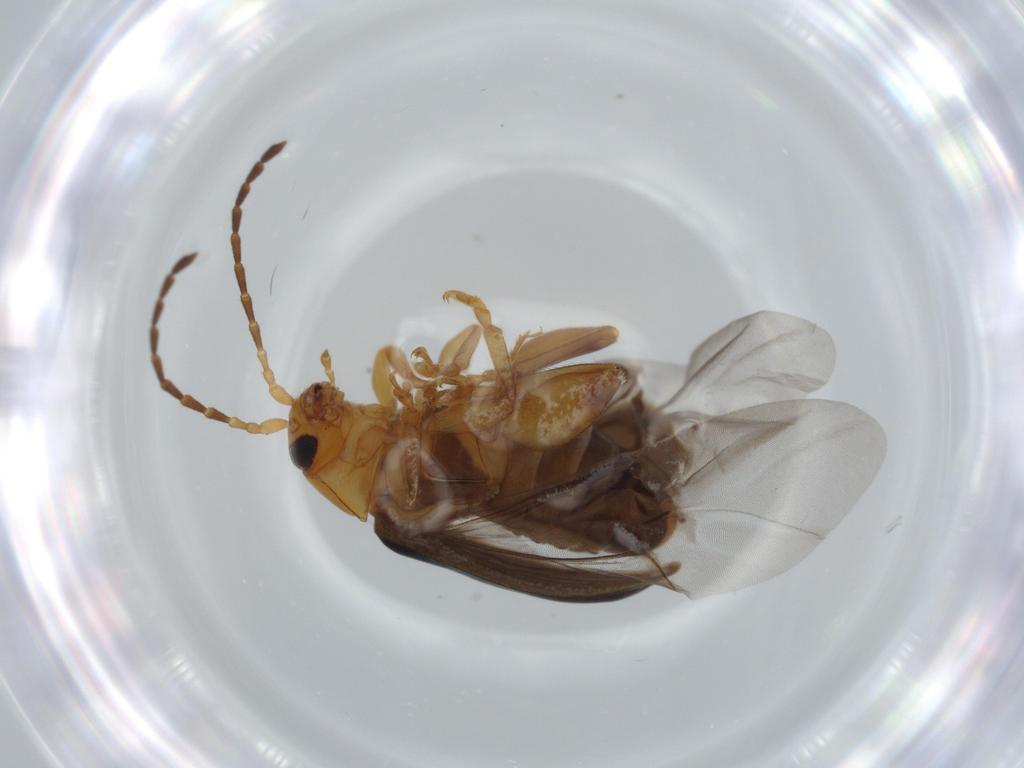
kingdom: Animalia
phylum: Arthropoda
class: Insecta
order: Coleoptera
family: Chrysomelidae
